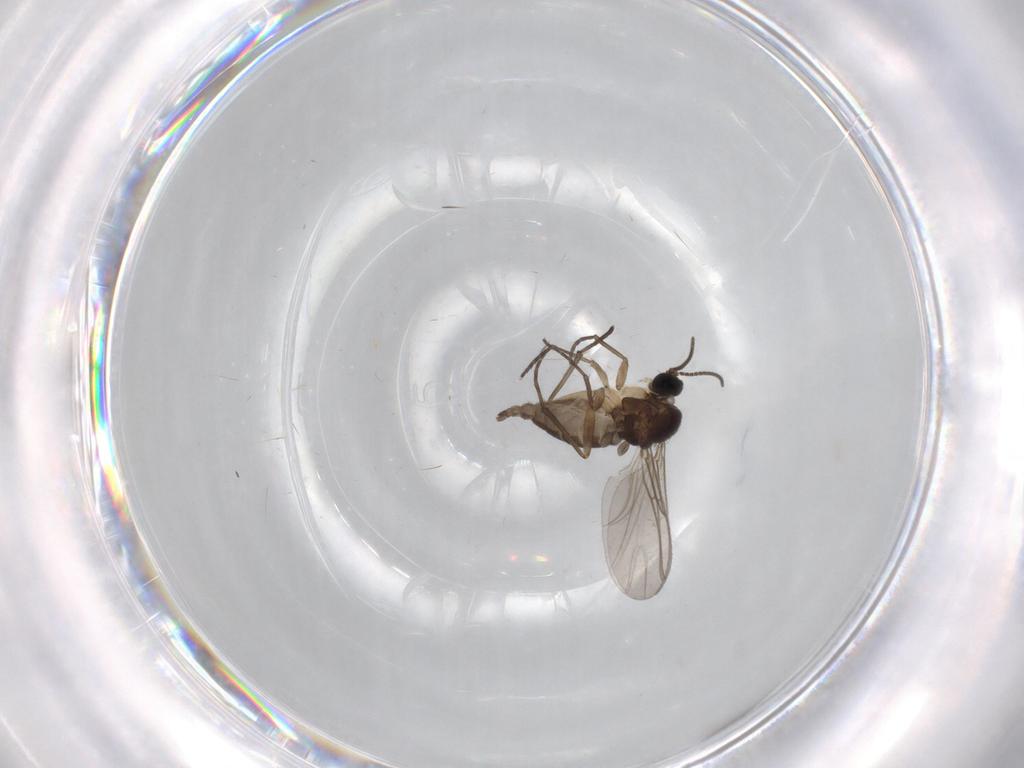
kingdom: Animalia
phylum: Arthropoda
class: Insecta
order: Diptera
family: Sciaridae
